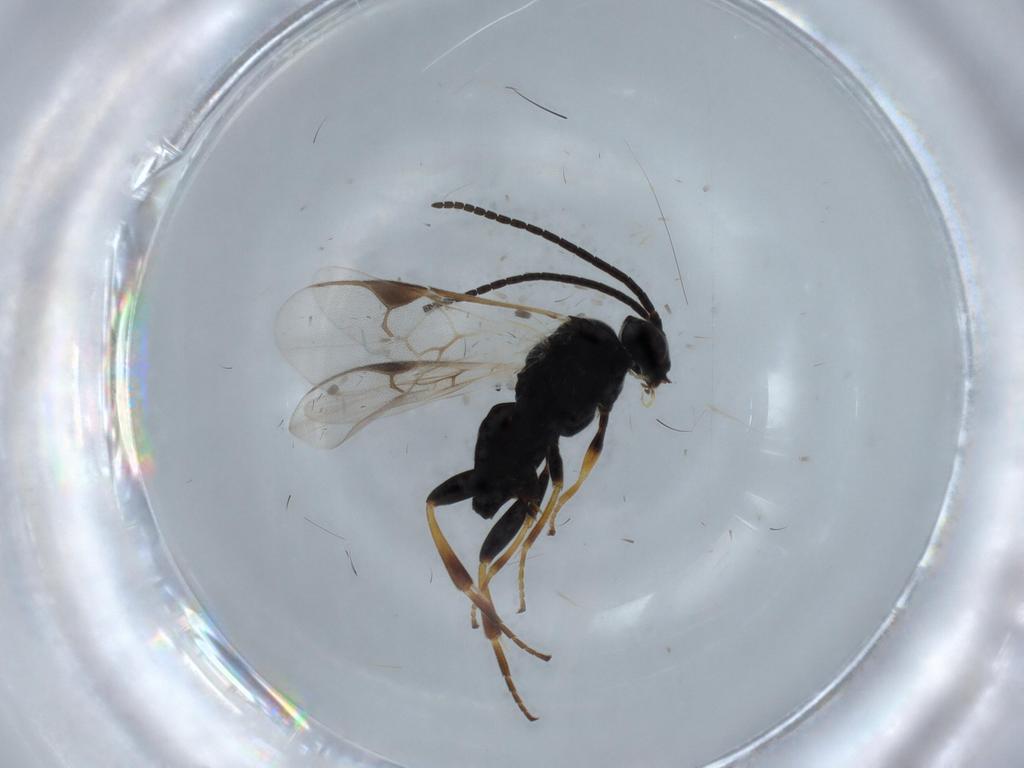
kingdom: Animalia
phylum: Arthropoda
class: Insecta
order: Hymenoptera
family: Braconidae
